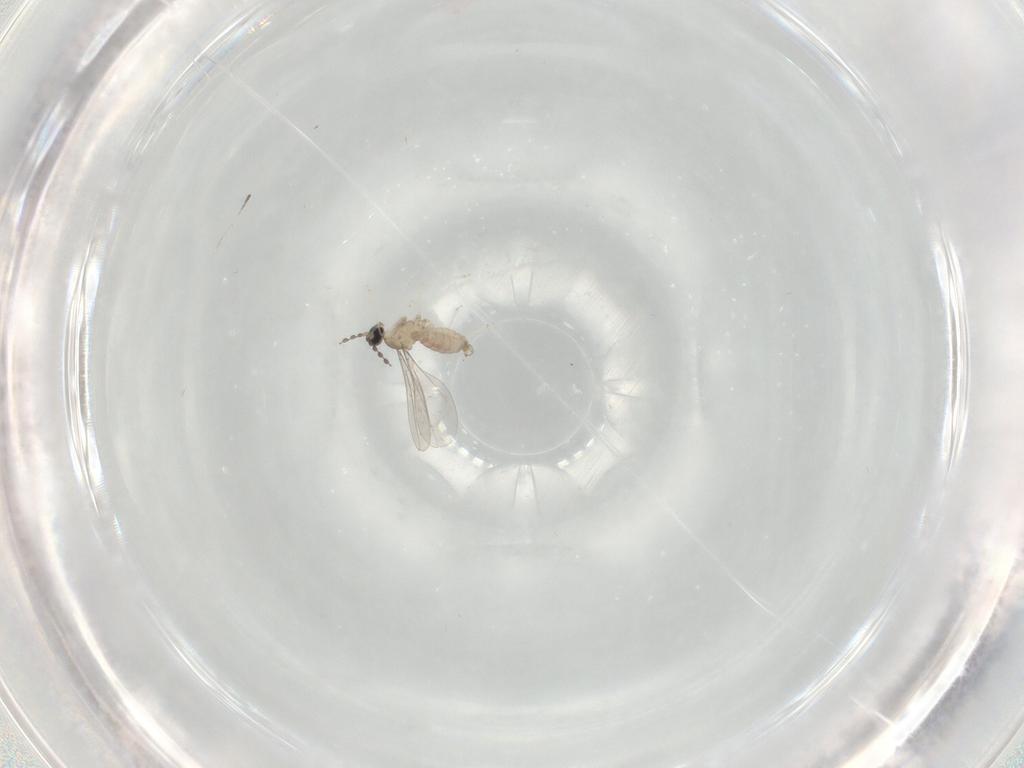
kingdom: Animalia
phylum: Arthropoda
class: Insecta
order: Diptera
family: Cecidomyiidae
